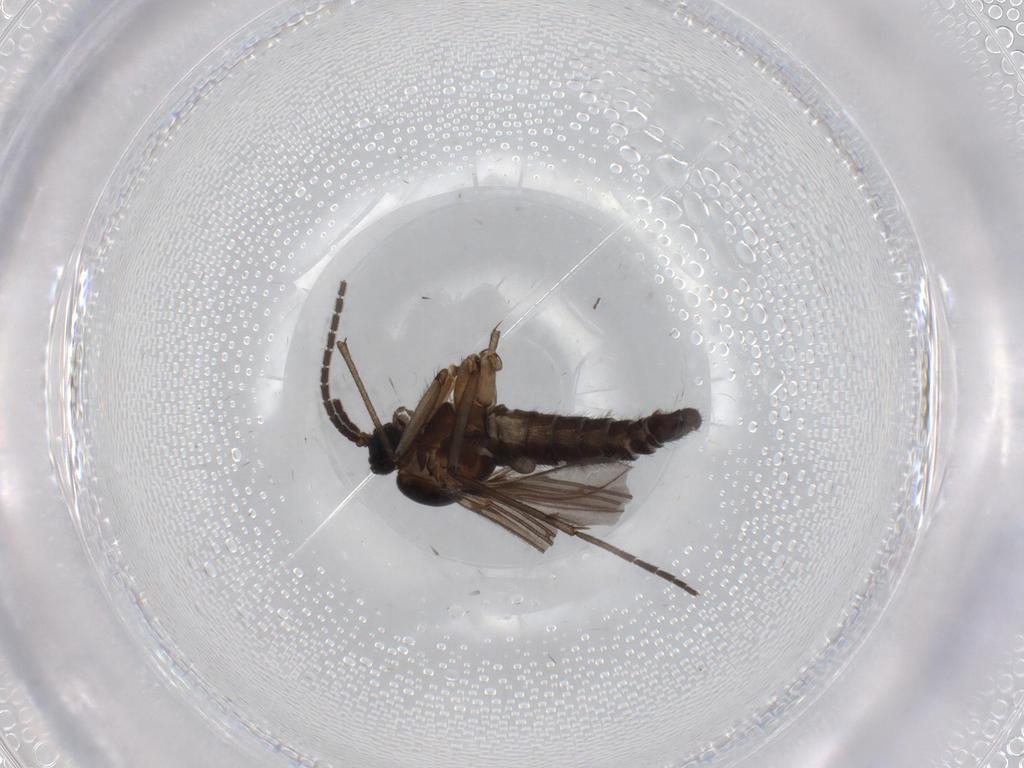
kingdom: Animalia
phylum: Arthropoda
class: Insecta
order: Diptera
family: Sciaridae
